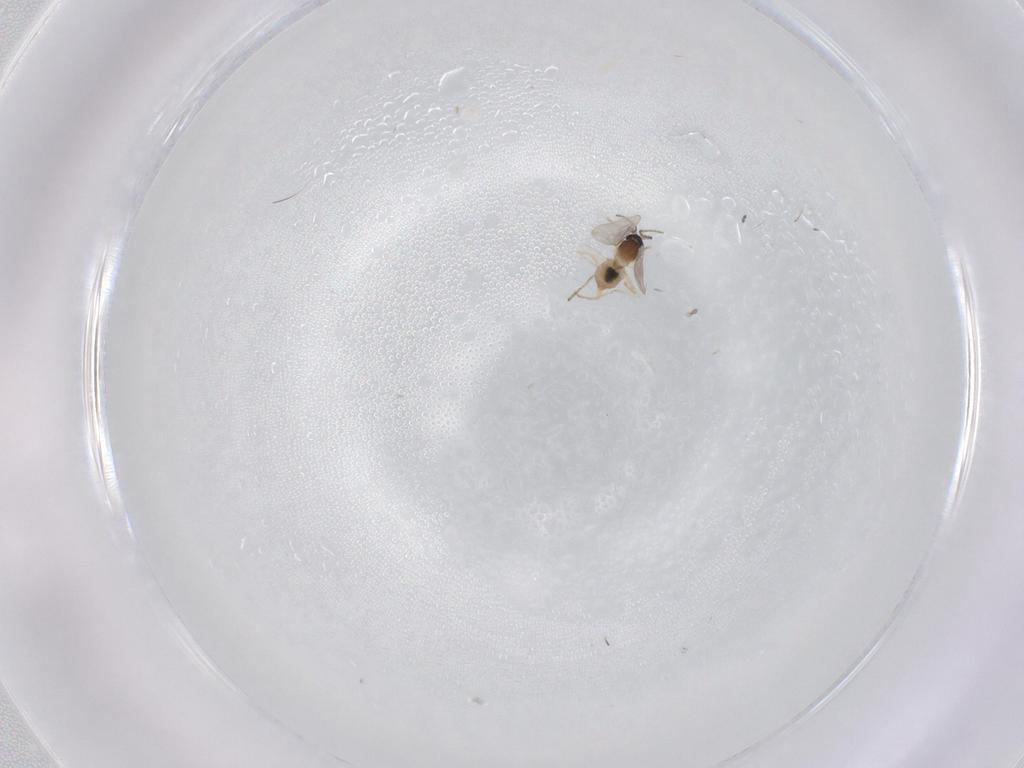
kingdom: Animalia
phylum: Arthropoda
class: Insecta
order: Diptera
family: Cecidomyiidae
